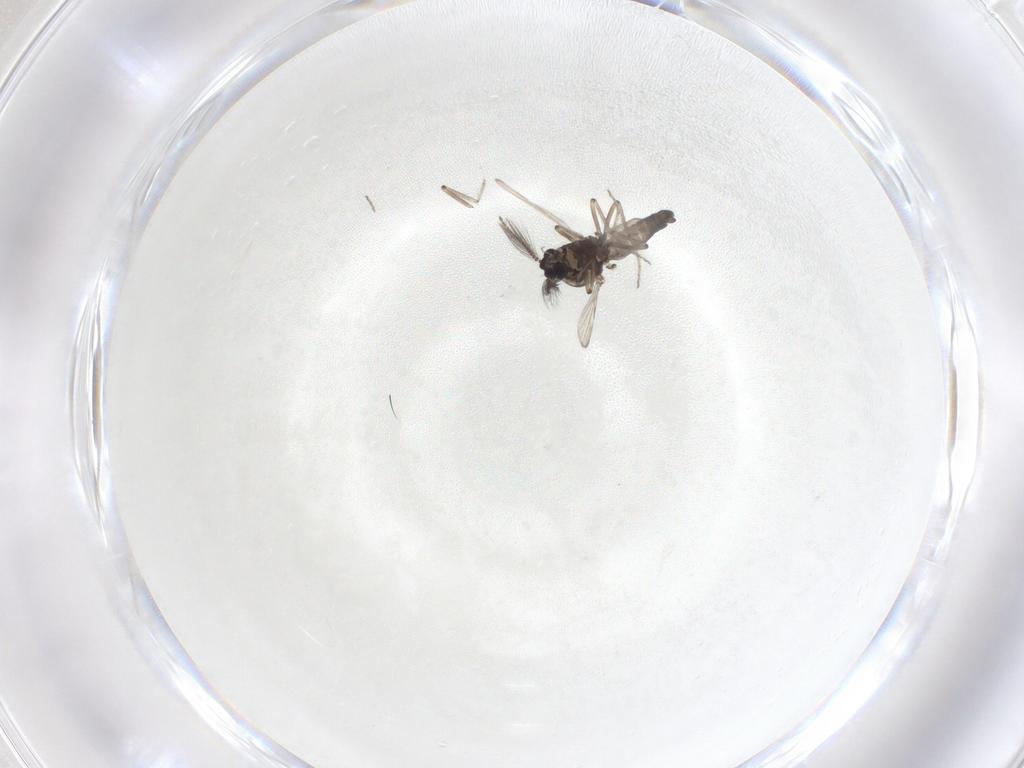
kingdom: Animalia
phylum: Arthropoda
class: Insecta
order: Diptera
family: Ceratopogonidae
